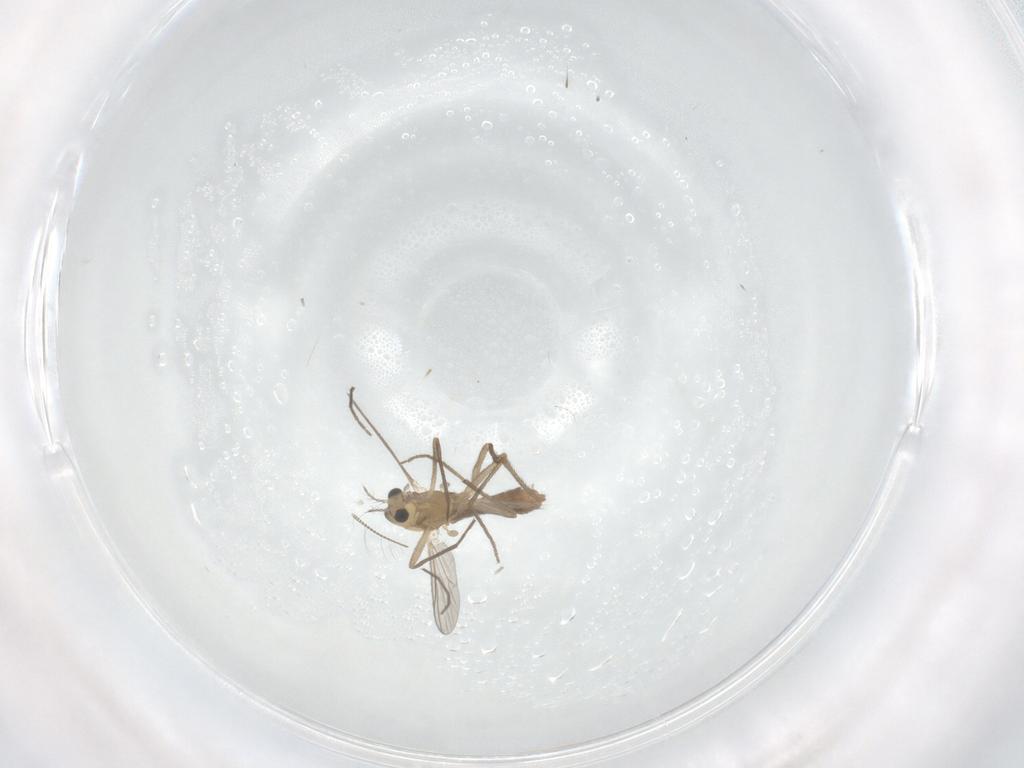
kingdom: Animalia
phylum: Arthropoda
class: Insecta
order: Diptera
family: Chironomidae
